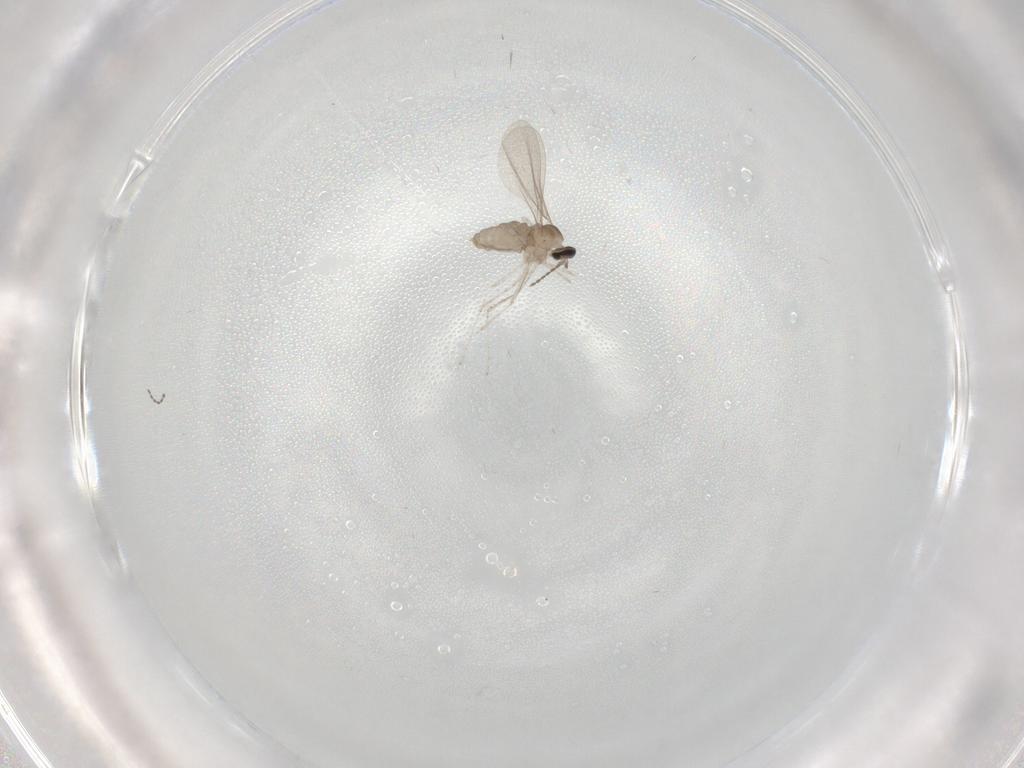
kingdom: Animalia
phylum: Arthropoda
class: Insecta
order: Diptera
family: Cecidomyiidae
